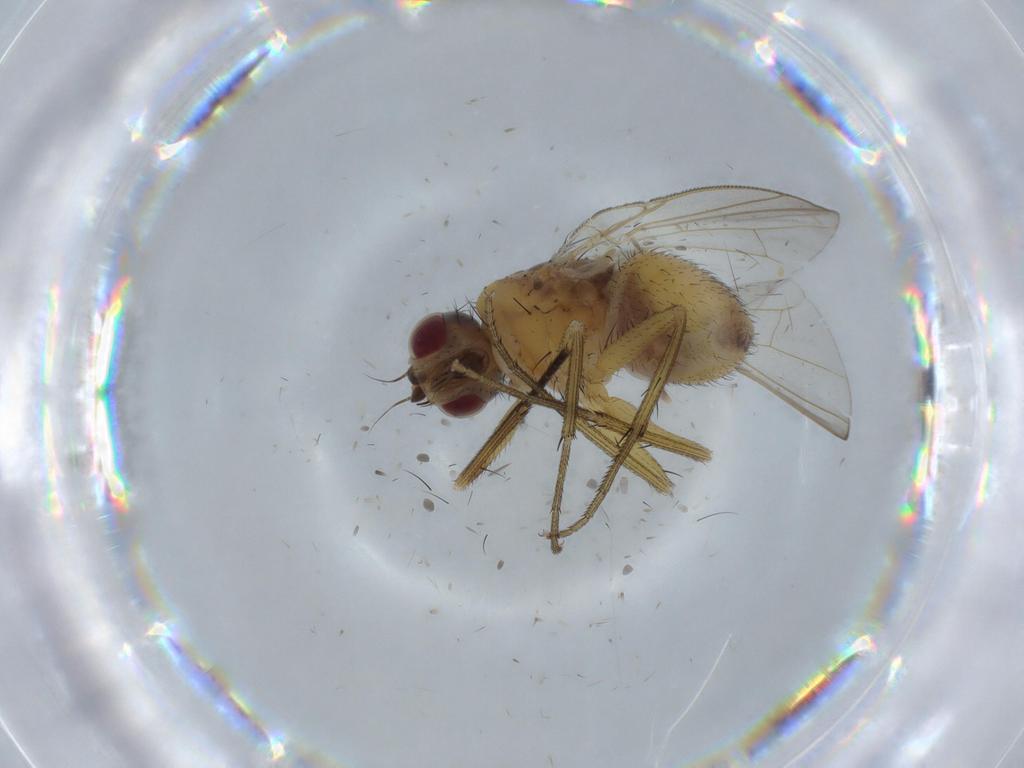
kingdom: Animalia
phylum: Arthropoda
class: Insecta
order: Diptera
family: Muscidae
